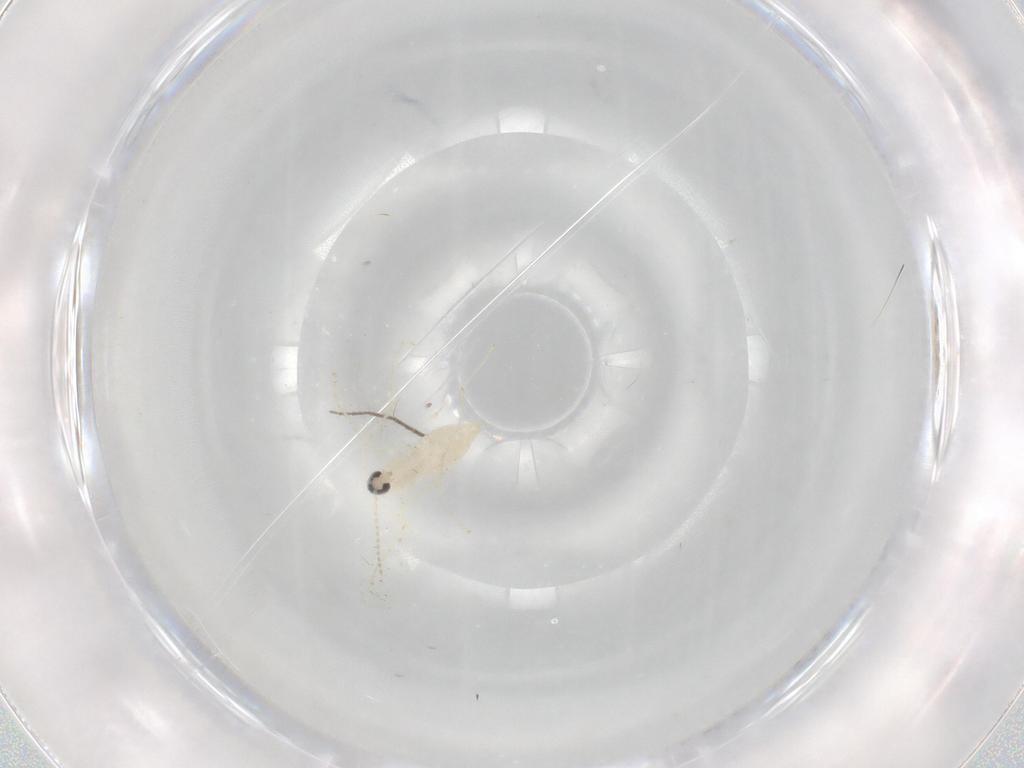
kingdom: Animalia
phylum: Arthropoda
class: Insecta
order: Diptera
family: Cecidomyiidae
